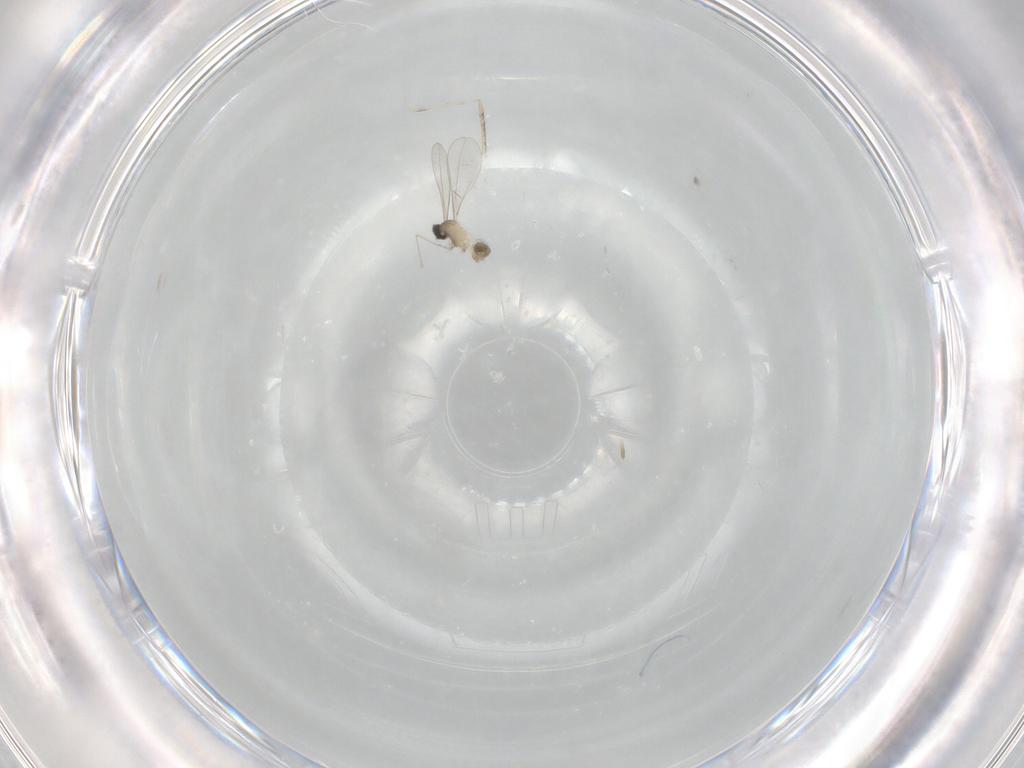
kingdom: Animalia
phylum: Arthropoda
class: Insecta
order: Diptera
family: Cecidomyiidae
